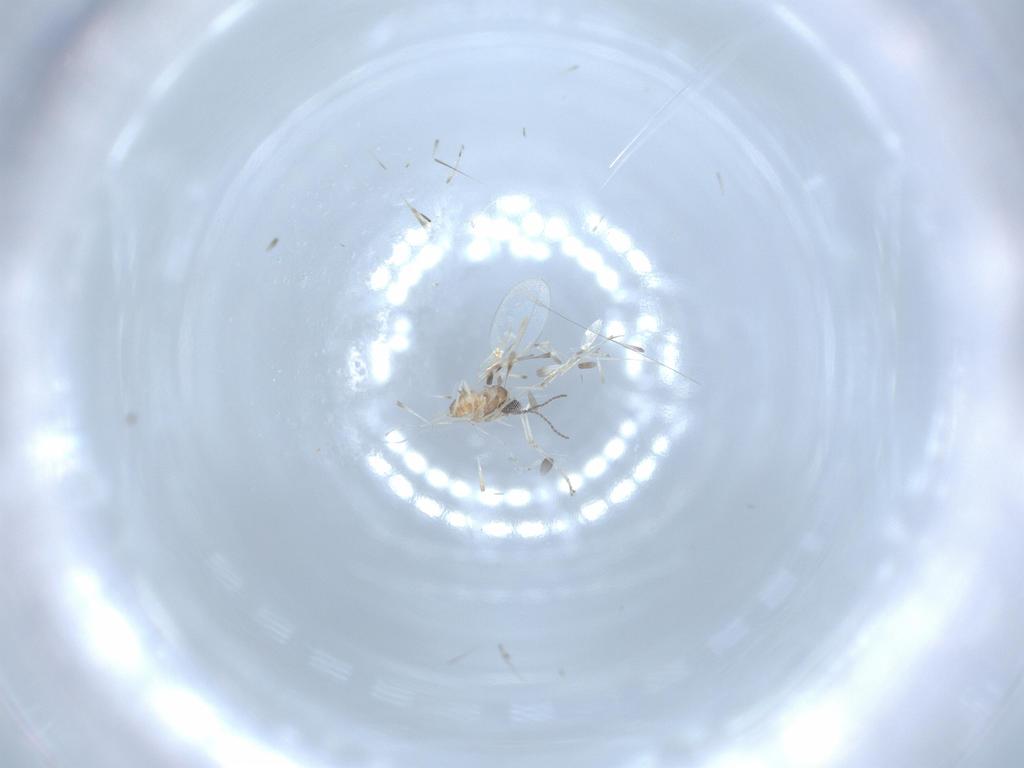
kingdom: Animalia
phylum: Arthropoda
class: Insecta
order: Diptera
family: Cecidomyiidae
